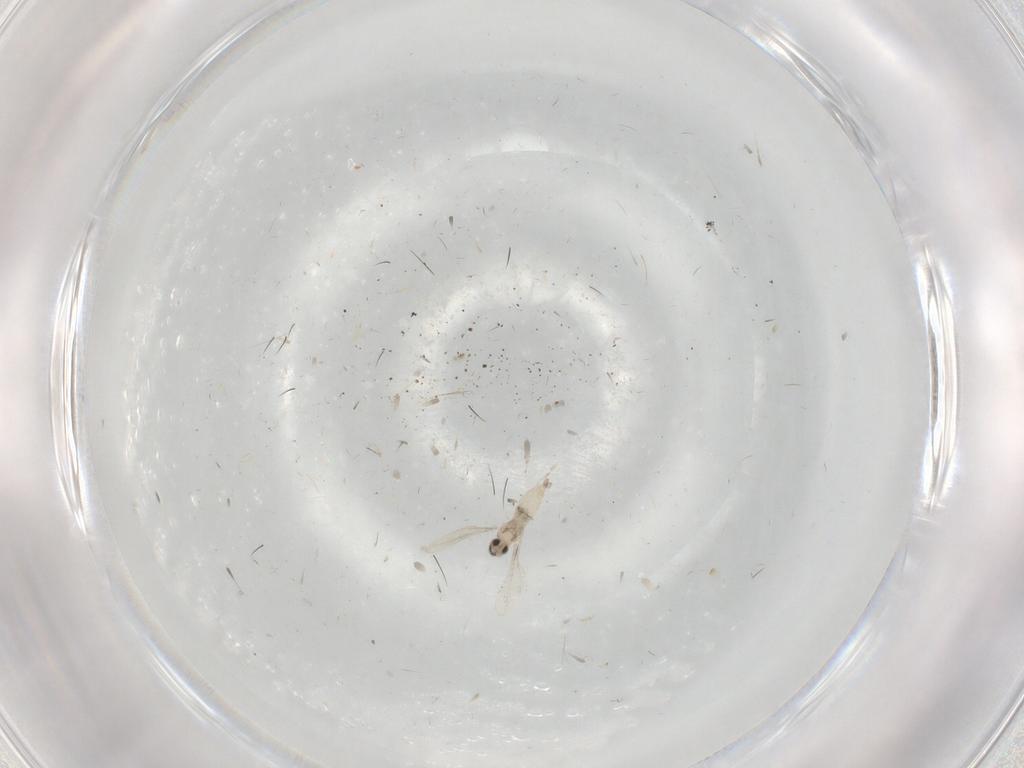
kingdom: Animalia
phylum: Arthropoda
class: Insecta
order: Diptera
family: Cecidomyiidae
